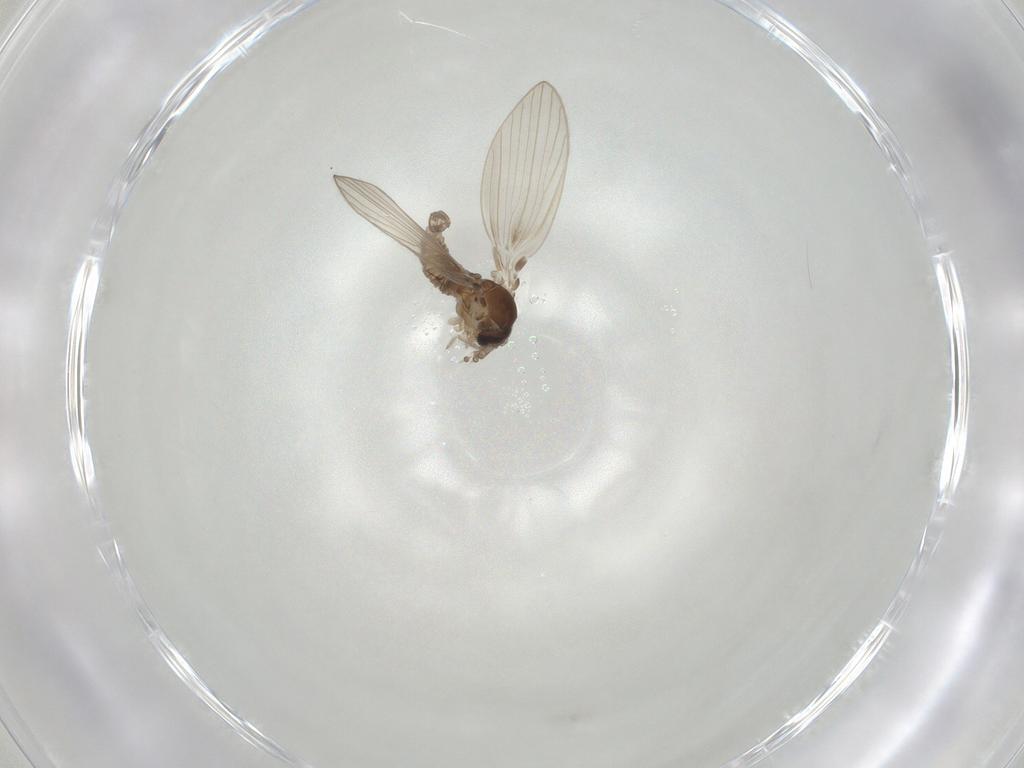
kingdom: Animalia
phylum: Arthropoda
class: Insecta
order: Diptera
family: Psychodidae
